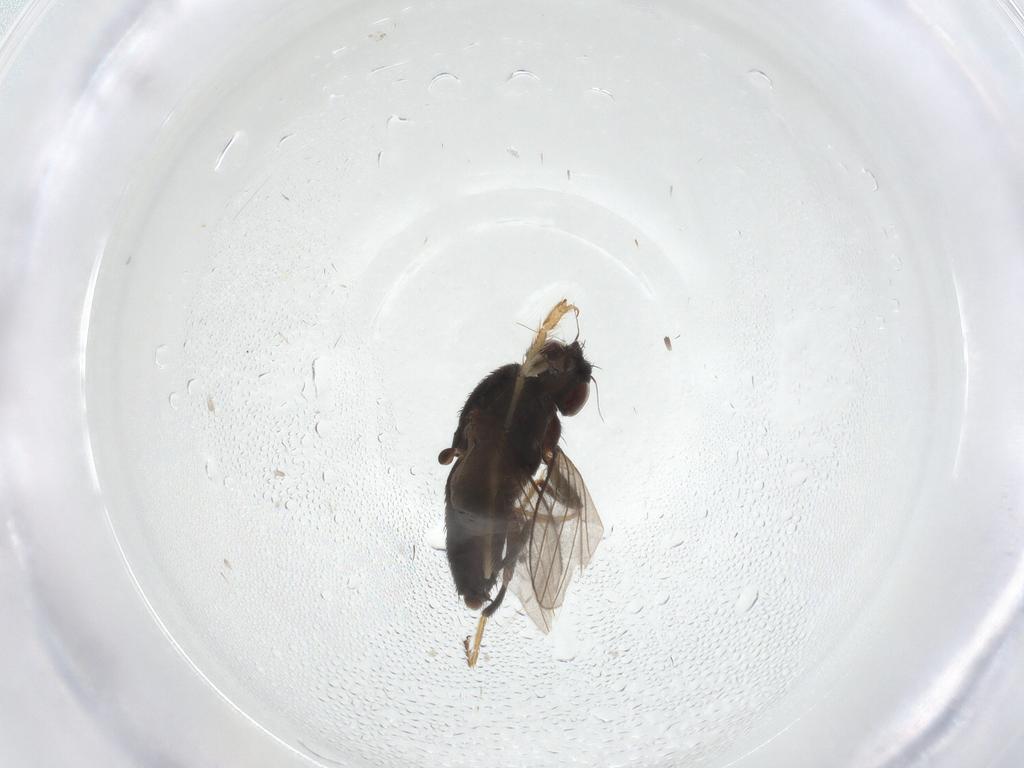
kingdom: Animalia
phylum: Arthropoda
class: Insecta
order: Diptera
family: Milichiidae
